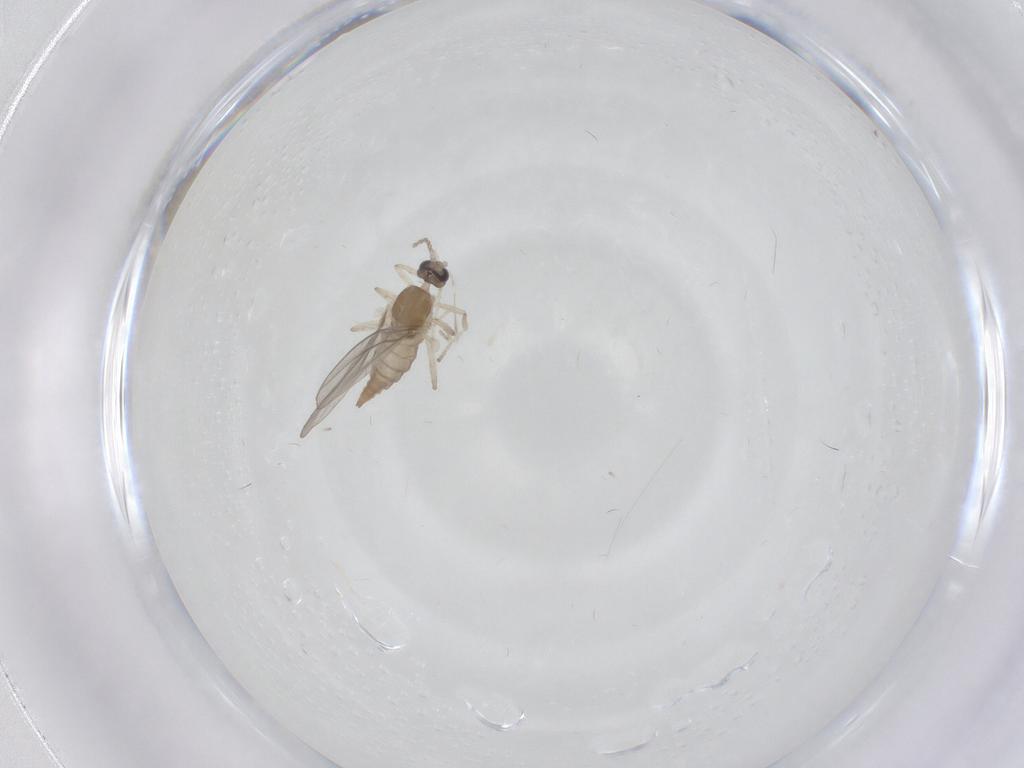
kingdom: Animalia
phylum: Arthropoda
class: Insecta
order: Diptera
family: Cecidomyiidae
